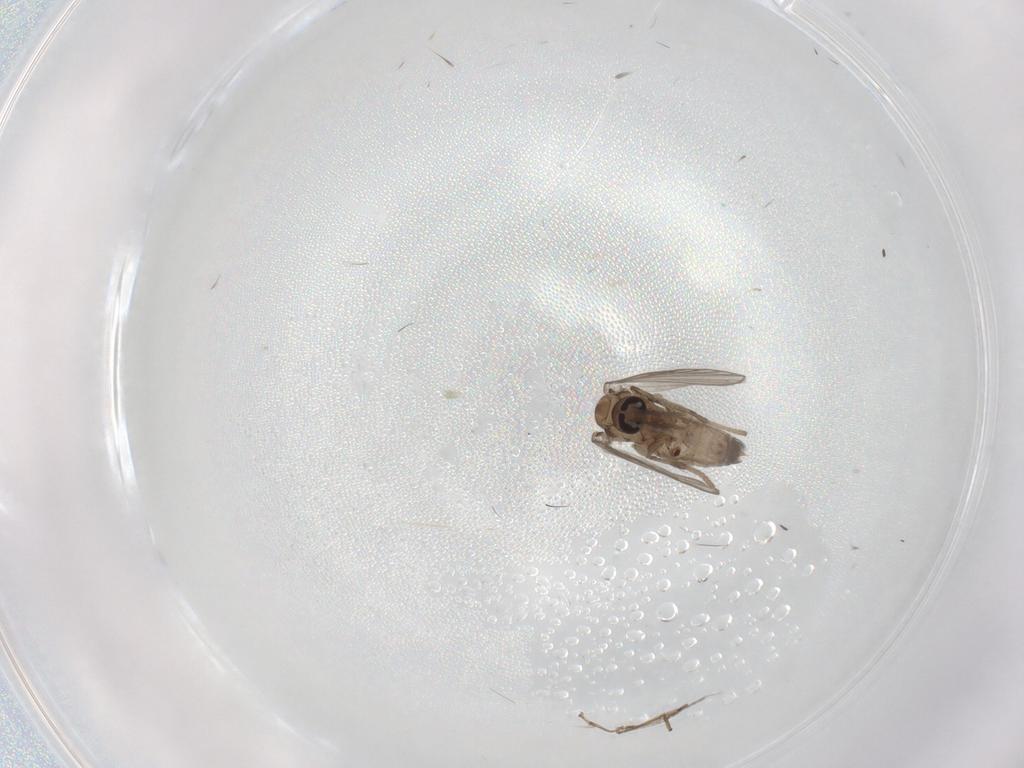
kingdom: Animalia
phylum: Arthropoda
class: Insecta
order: Diptera
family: Psychodidae
